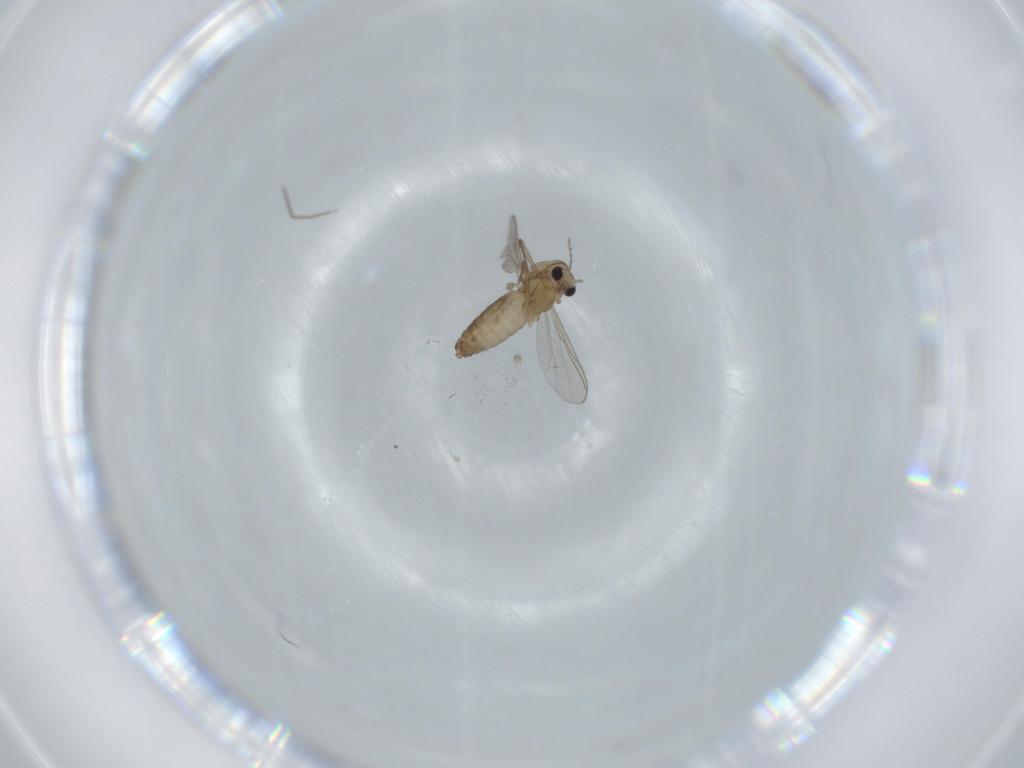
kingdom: Animalia
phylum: Arthropoda
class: Insecta
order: Diptera
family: Chironomidae
